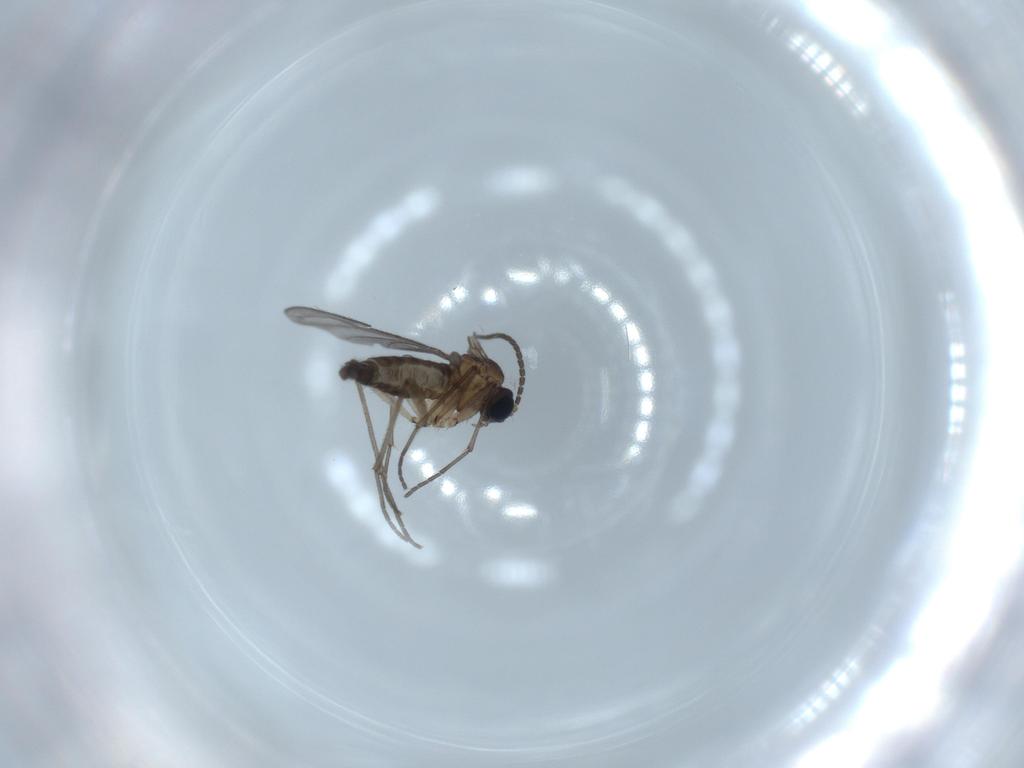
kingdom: Animalia
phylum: Arthropoda
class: Insecta
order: Diptera
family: Sciaridae
